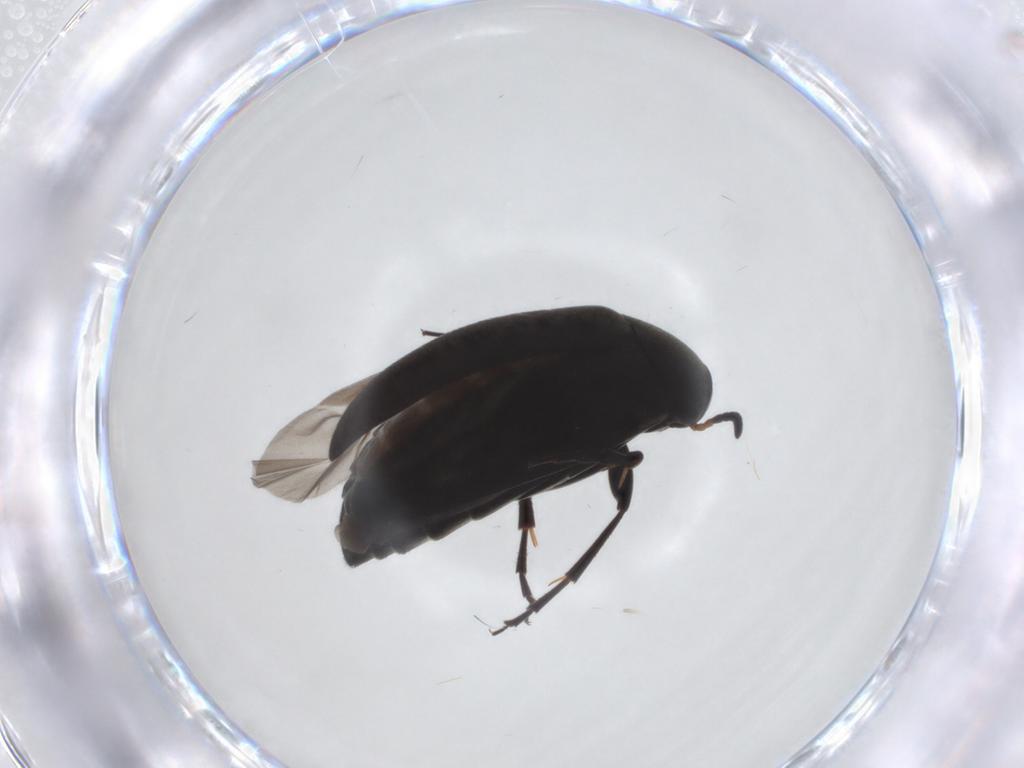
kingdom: Animalia
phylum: Arthropoda
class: Insecta
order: Coleoptera
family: Scraptiidae
